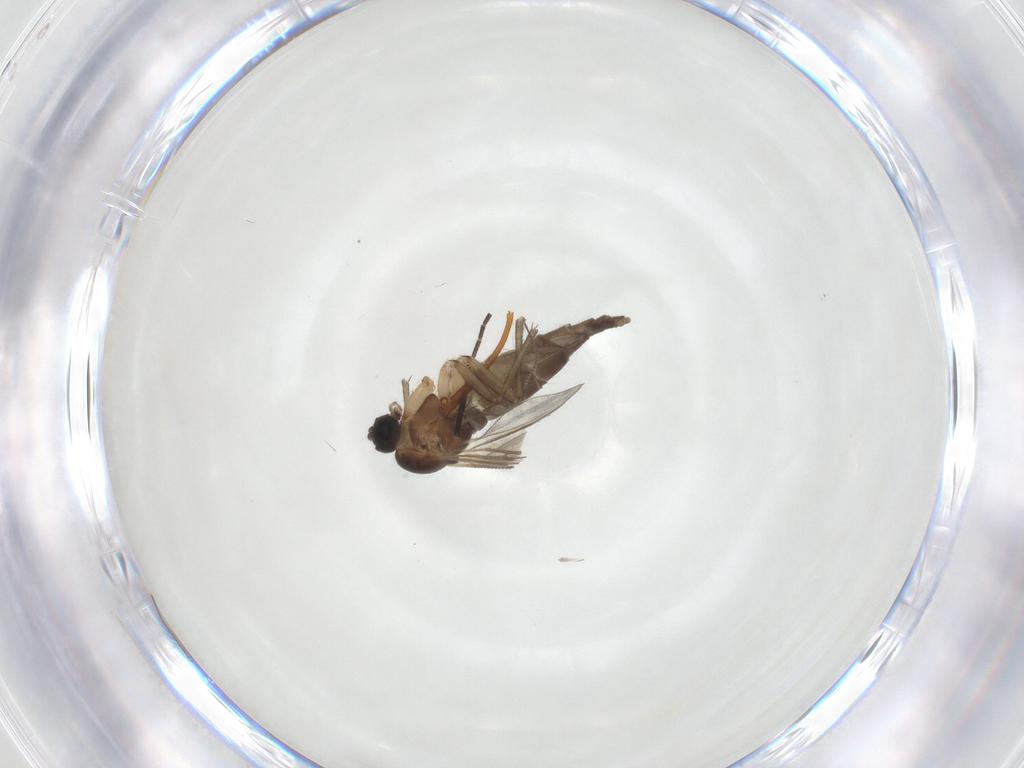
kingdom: Animalia
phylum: Arthropoda
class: Insecta
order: Diptera
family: Sciaridae
